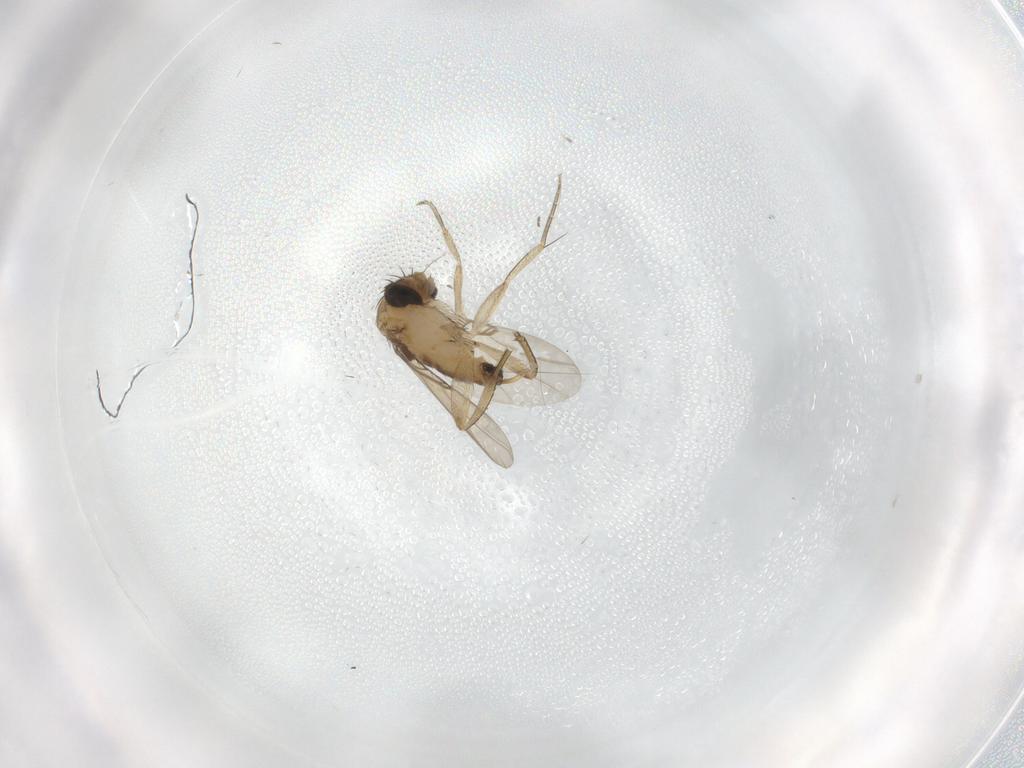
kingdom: Animalia
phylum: Arthropoda
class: Insecta
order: Diptera
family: Phoridae
